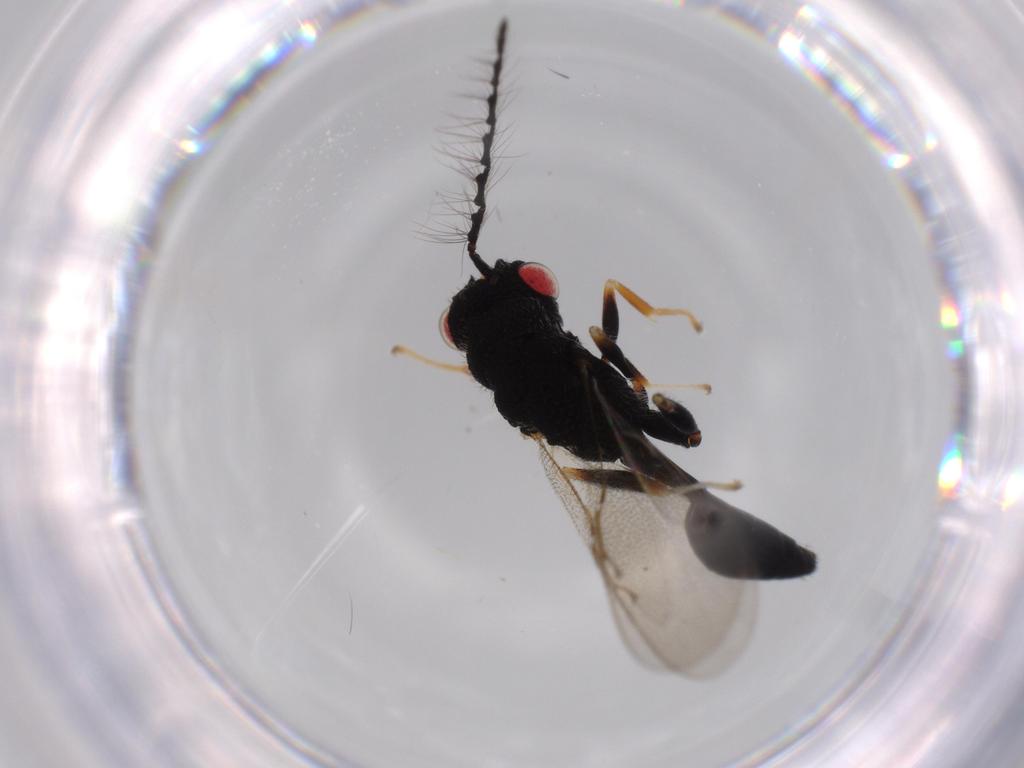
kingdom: Animalia
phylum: Arthropoda
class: Insecta
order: Hymenoptera
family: Eurytomidae
